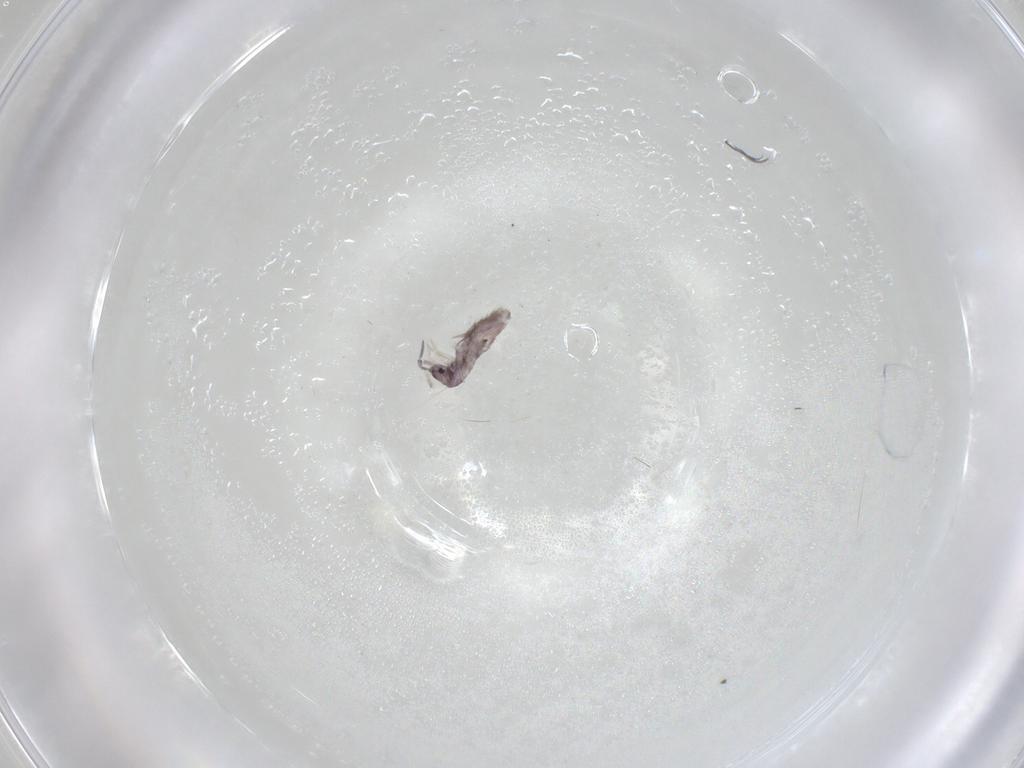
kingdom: Animalia
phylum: Arthropoda
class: Collembola
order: Entomobryomorpha
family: Entomobryidae
